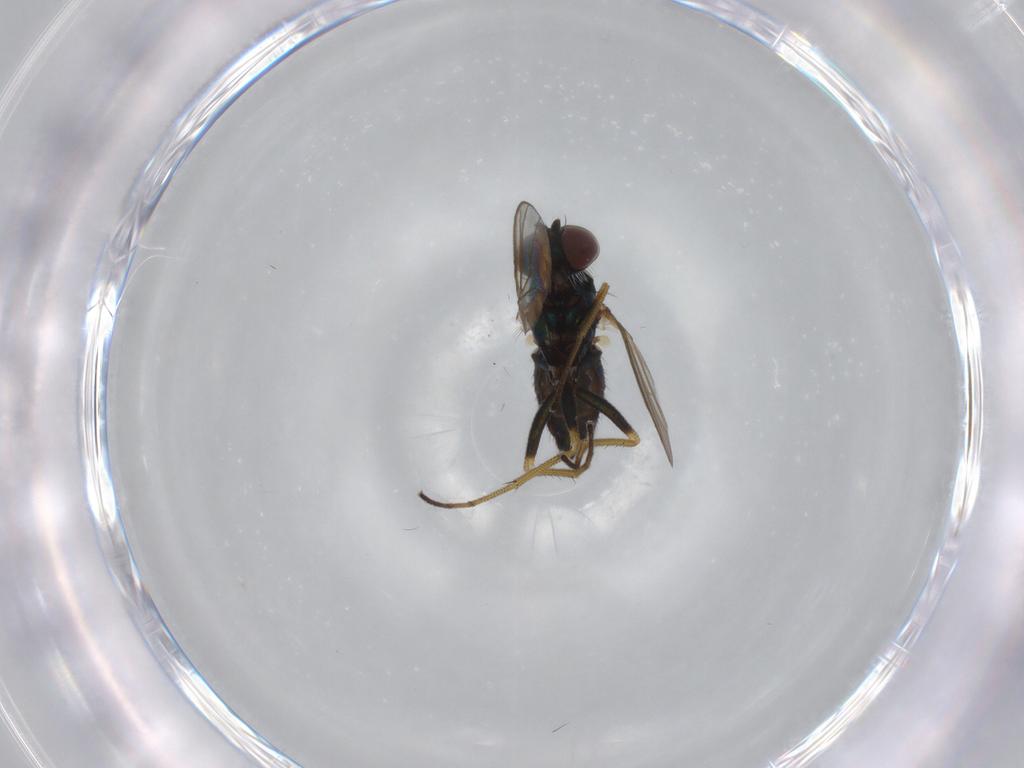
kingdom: Animalia
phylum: Arthropoda
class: Insecta
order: Diptera
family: Dolichopodidae
